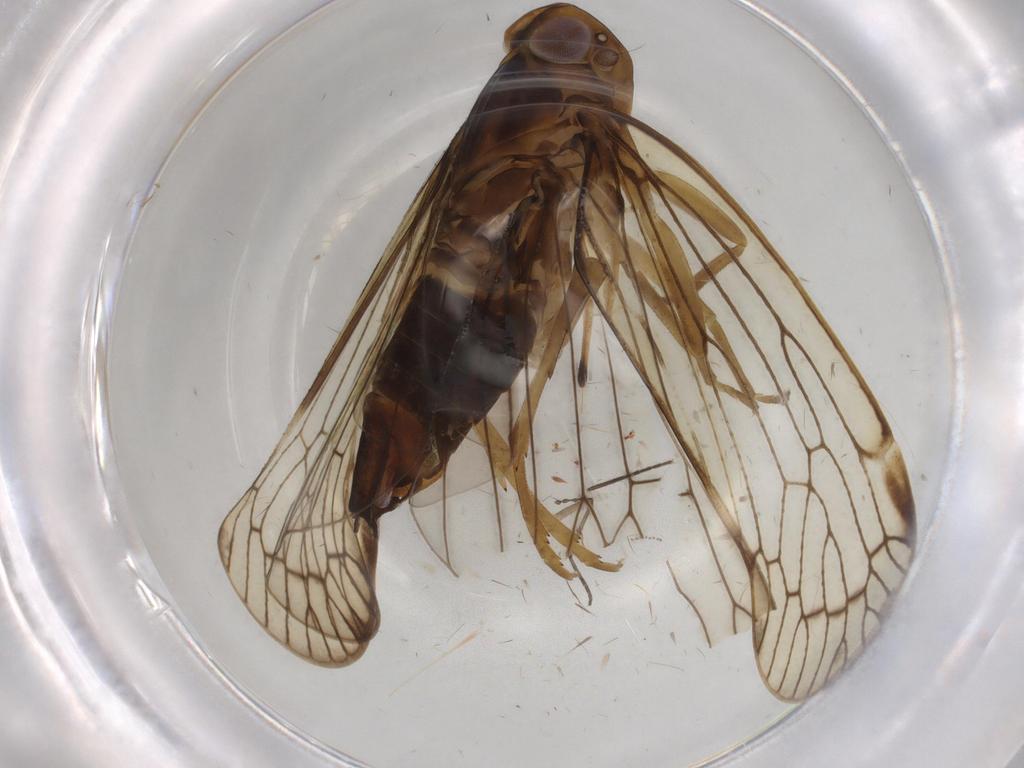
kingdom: Animalia
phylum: Arthropoda
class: Insecta
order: Hemiptera
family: Cixiidae
